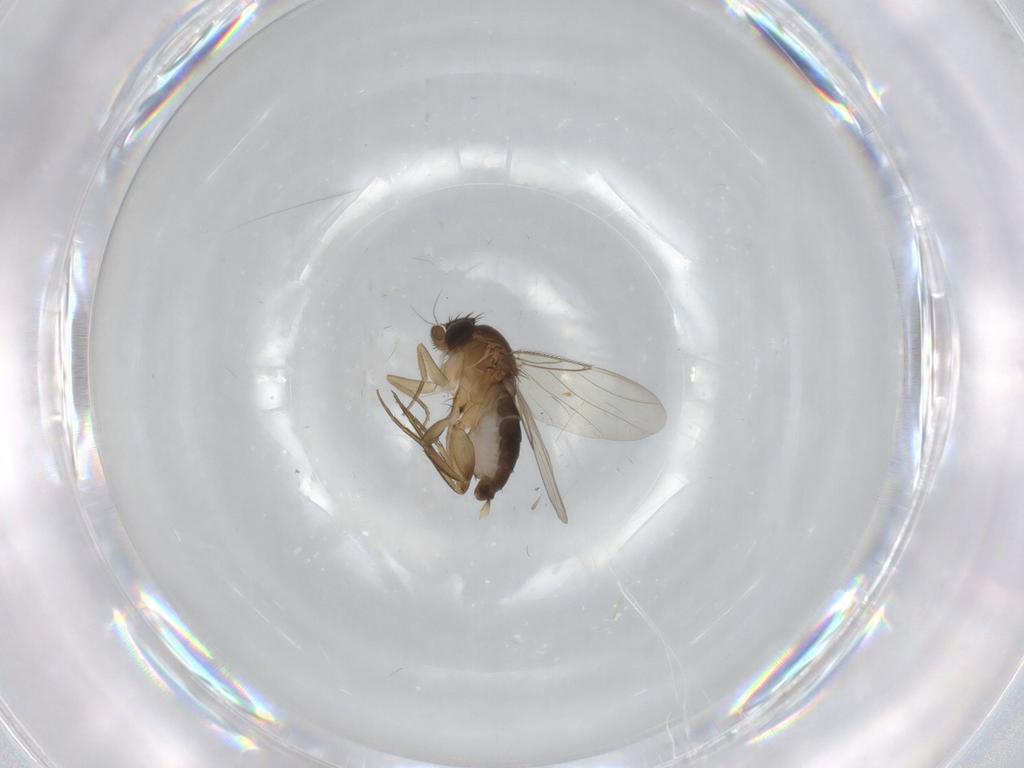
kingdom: Animalia
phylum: Arthropoda
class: Insecta
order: Diptera
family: Phoridae
